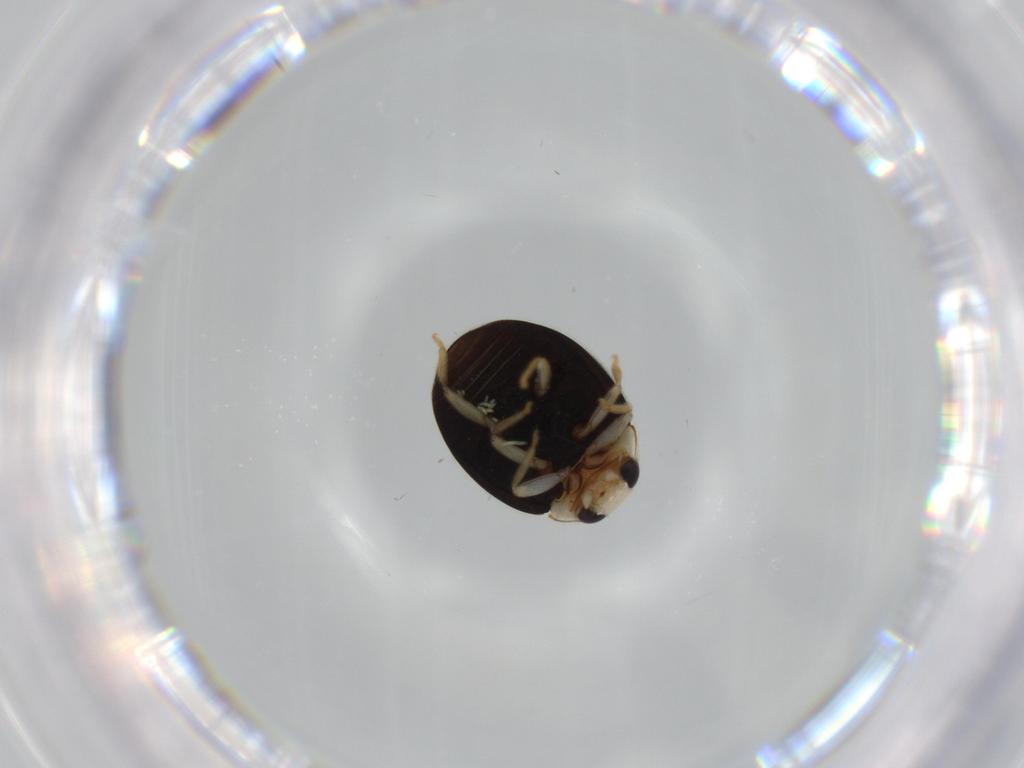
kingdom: Animalia
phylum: Arthropoda
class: Insecta
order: Coleoptera
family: Coccinellidae
